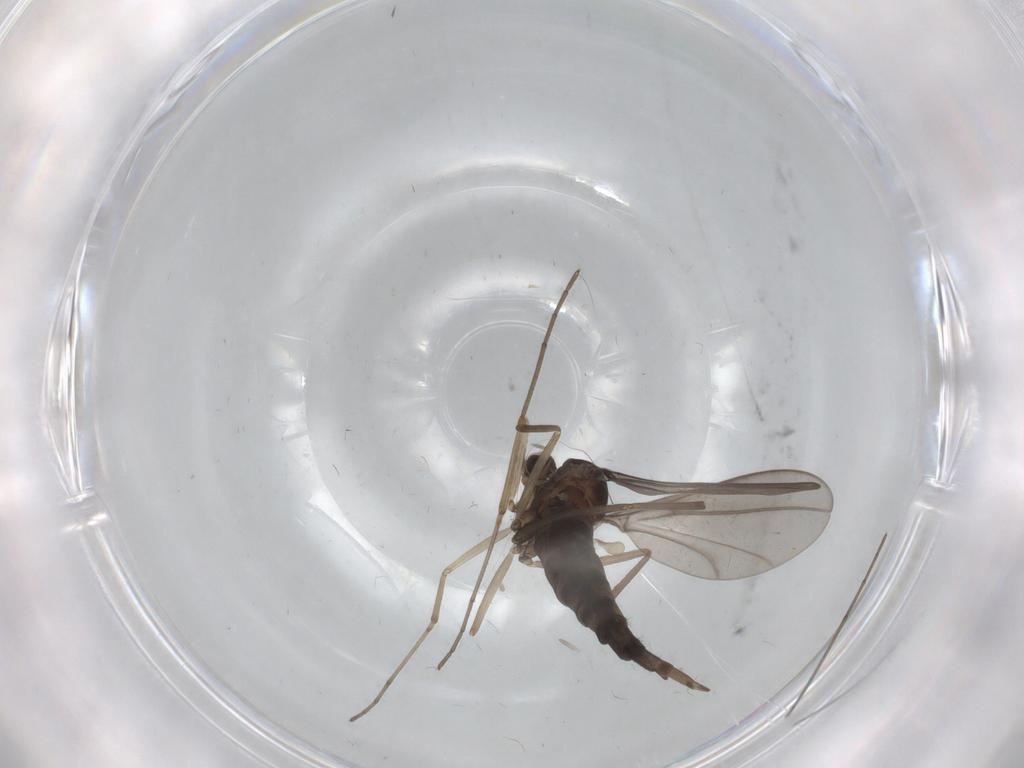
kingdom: Animalia
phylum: Arthropoda
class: Insecta
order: Diptera
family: Cecidomyiidae
